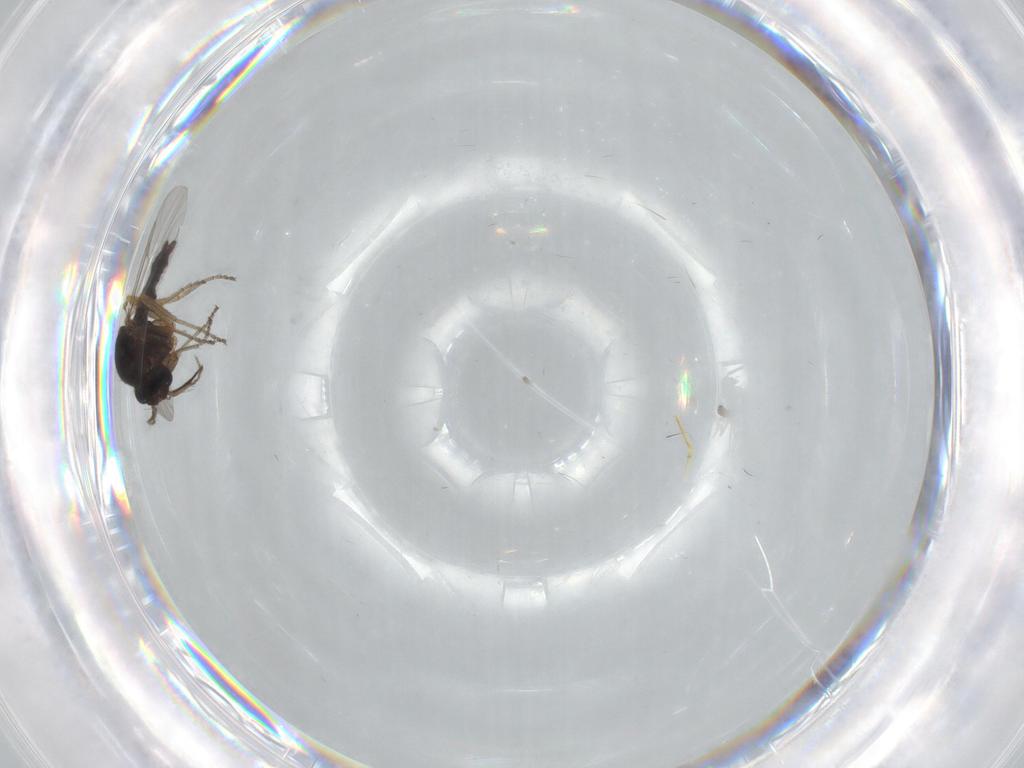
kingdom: Animalia
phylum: Arthropoda
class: Insecta
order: Diptera
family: Ceratopogonidae
